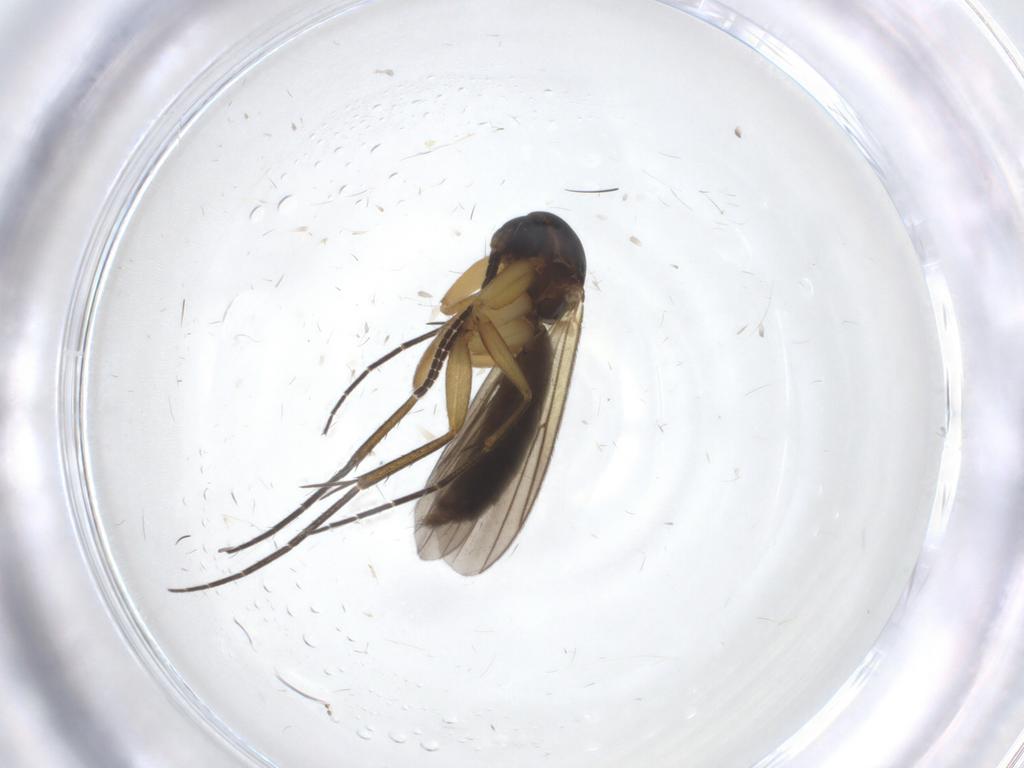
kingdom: Animalia
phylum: Arthropoda
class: Insecta
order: Diptera
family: Mycetophilidae
